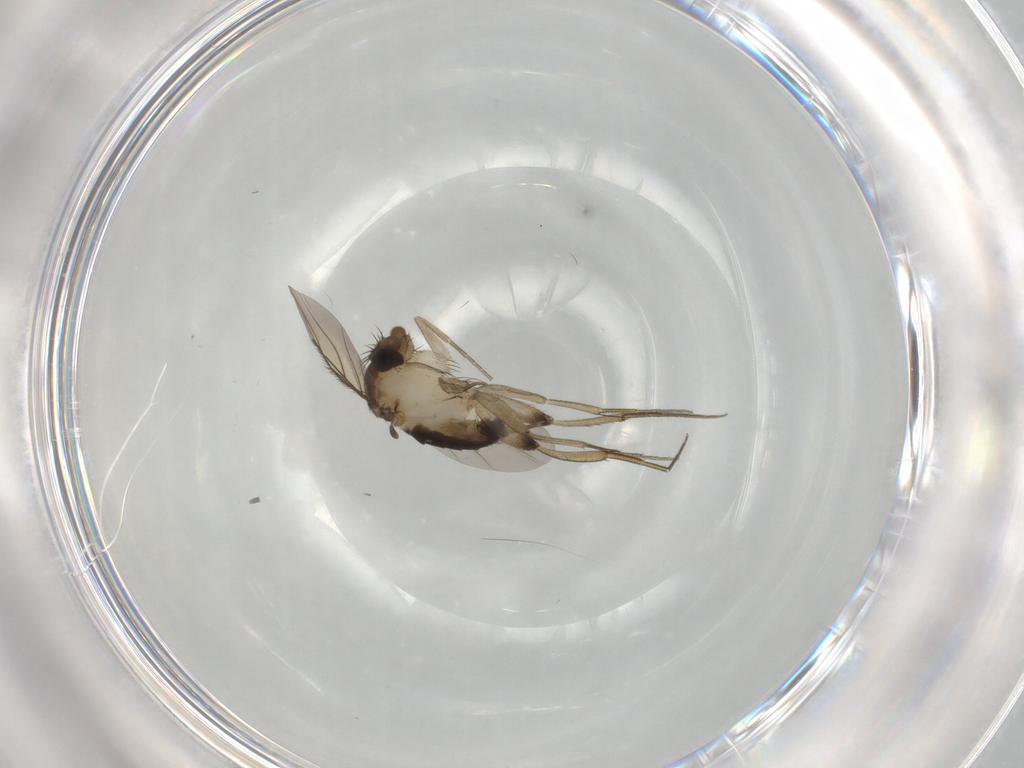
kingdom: Animalia
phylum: Arthropoda
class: Insecta
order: Diptera
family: Phoridae
